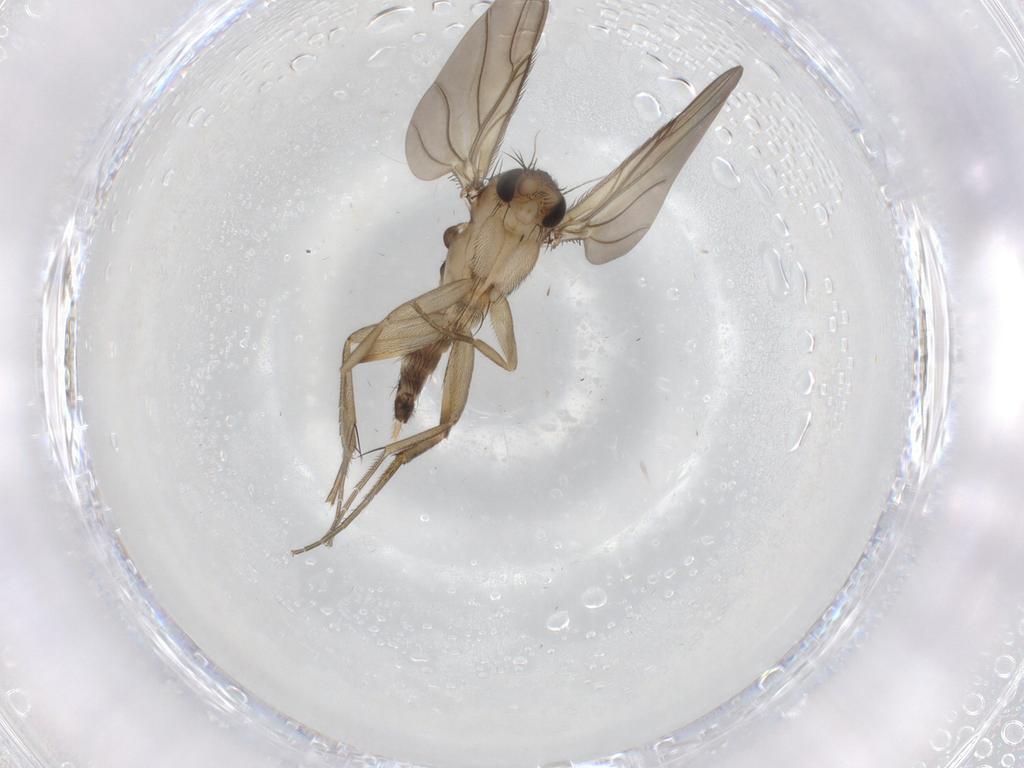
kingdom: Animalia
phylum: Arthropoda
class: Insecta
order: Diptera
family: Phoridae
